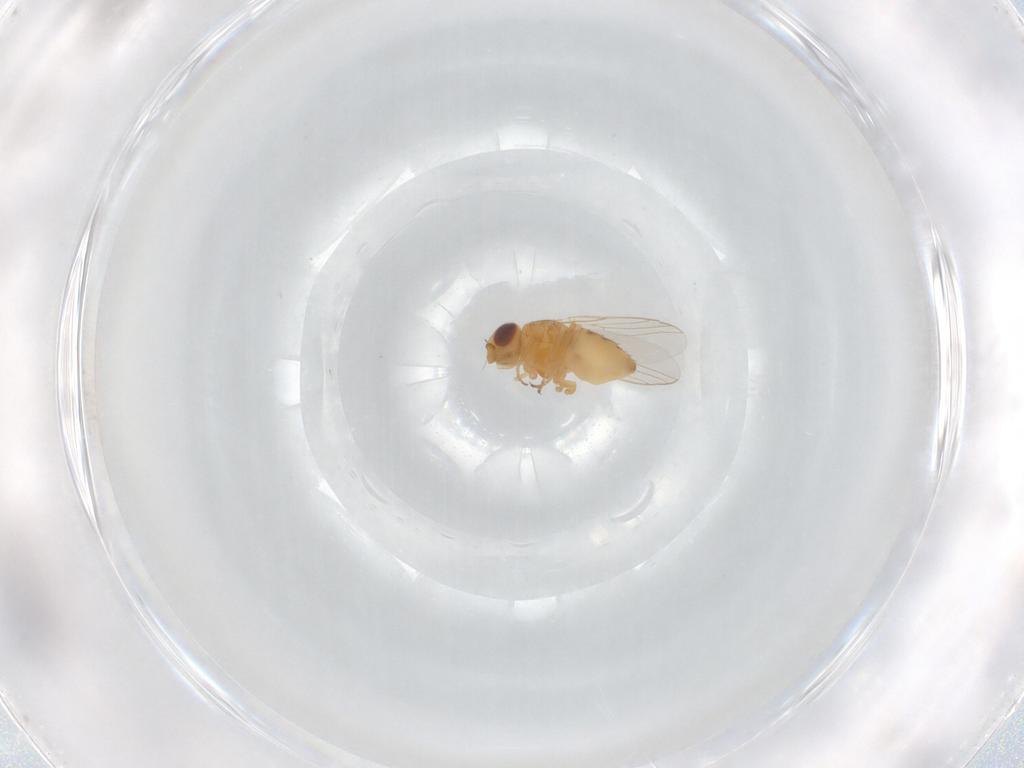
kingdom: Animalia
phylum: Arthropoda
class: Insecta
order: Diptera
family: Chloropidae
